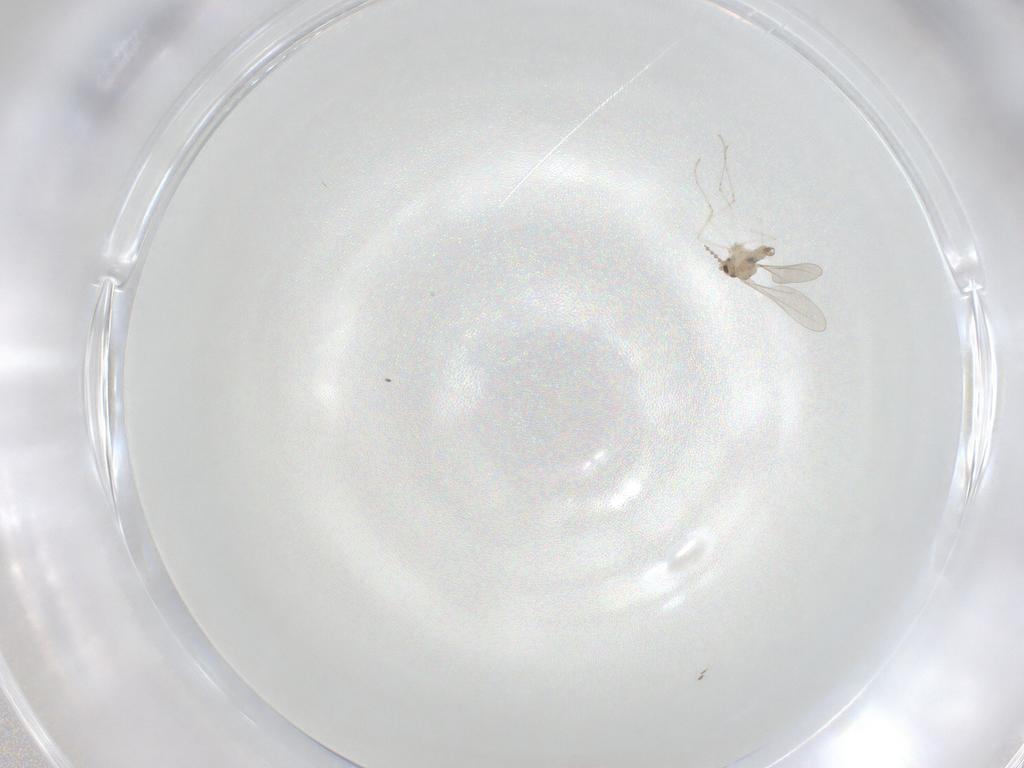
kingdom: Animalia
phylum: Arthropoda
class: Insecta
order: Diptera
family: Cecidomyiidae
